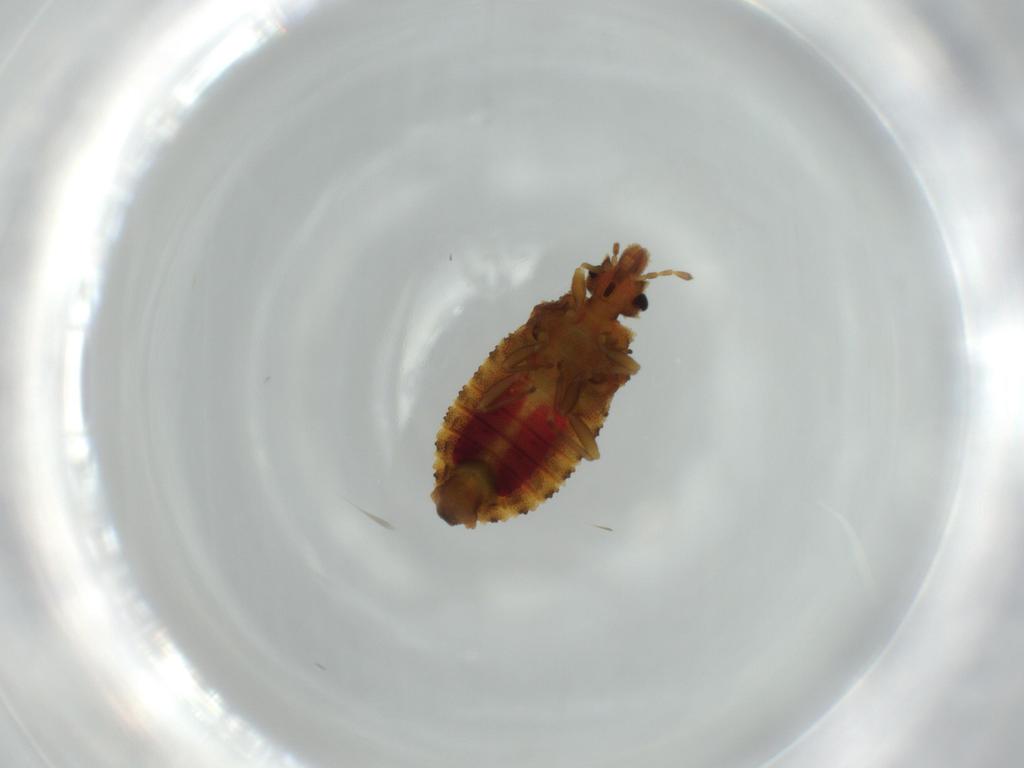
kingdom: Animalia
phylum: Arthropoda
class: Insecta
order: Hemiptera
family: Aradidae
